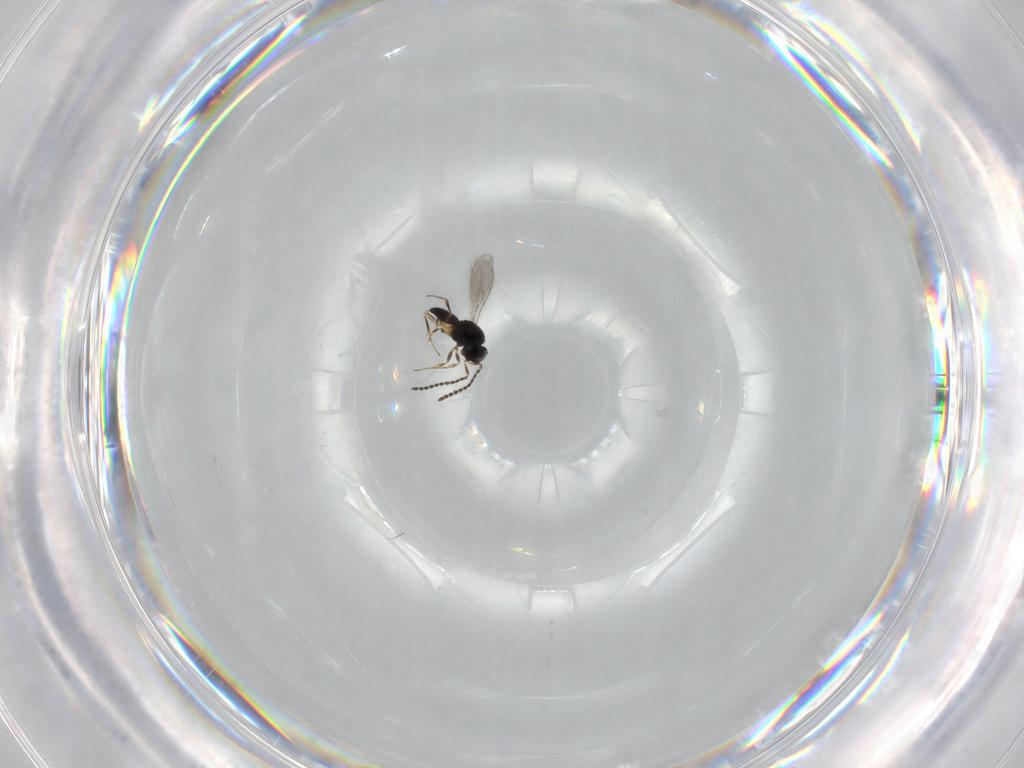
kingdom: Animalia
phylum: Arthropoda
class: Insecta
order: Hymenoptera
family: Scelionidae
